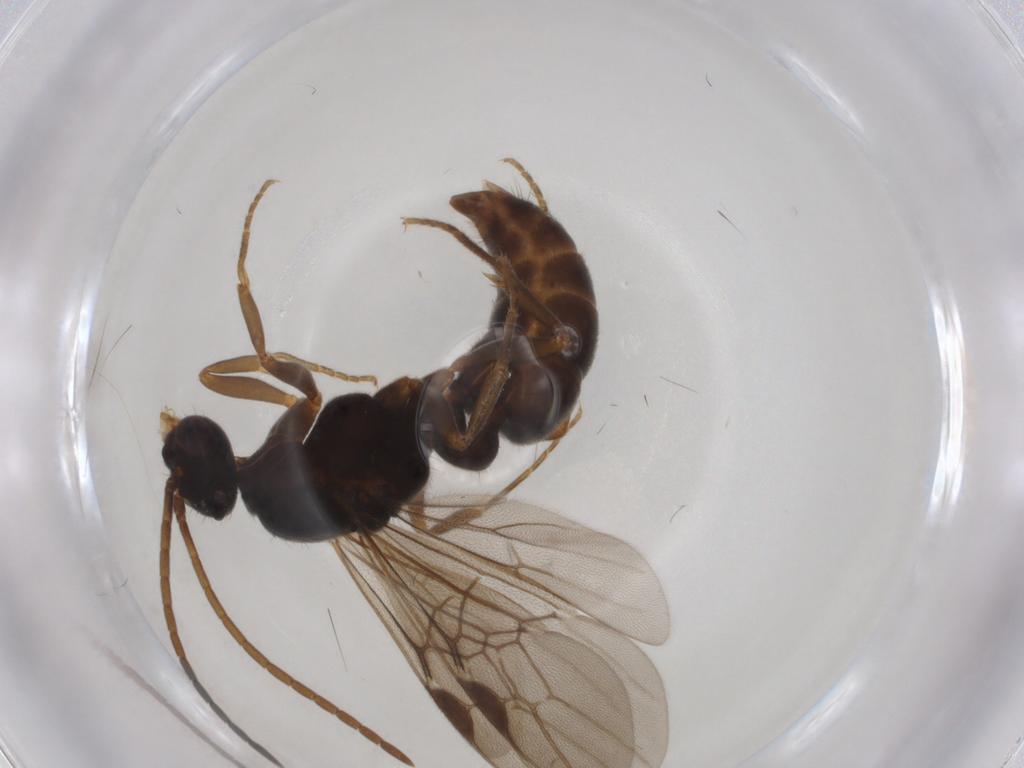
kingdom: Animalia
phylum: Arthropoda
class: Insecta
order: Hymenoptera
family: Formicidae
